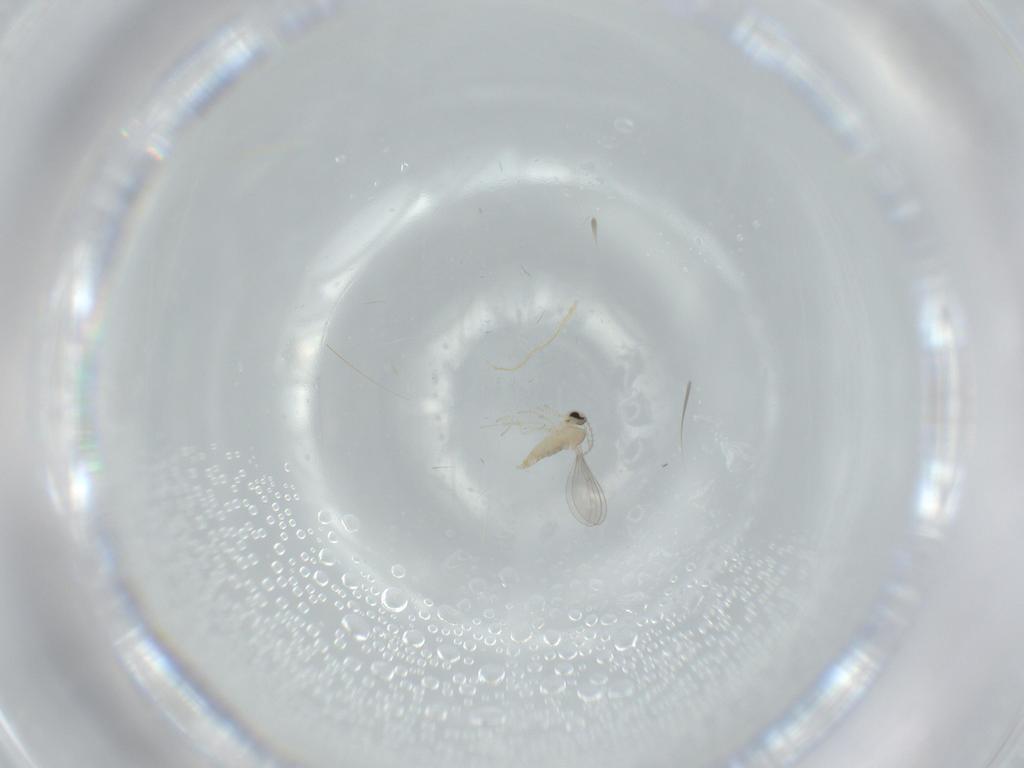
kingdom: Animalia
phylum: Arthropoda
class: Insecta
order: Diptera
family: Cecidomyiidae
